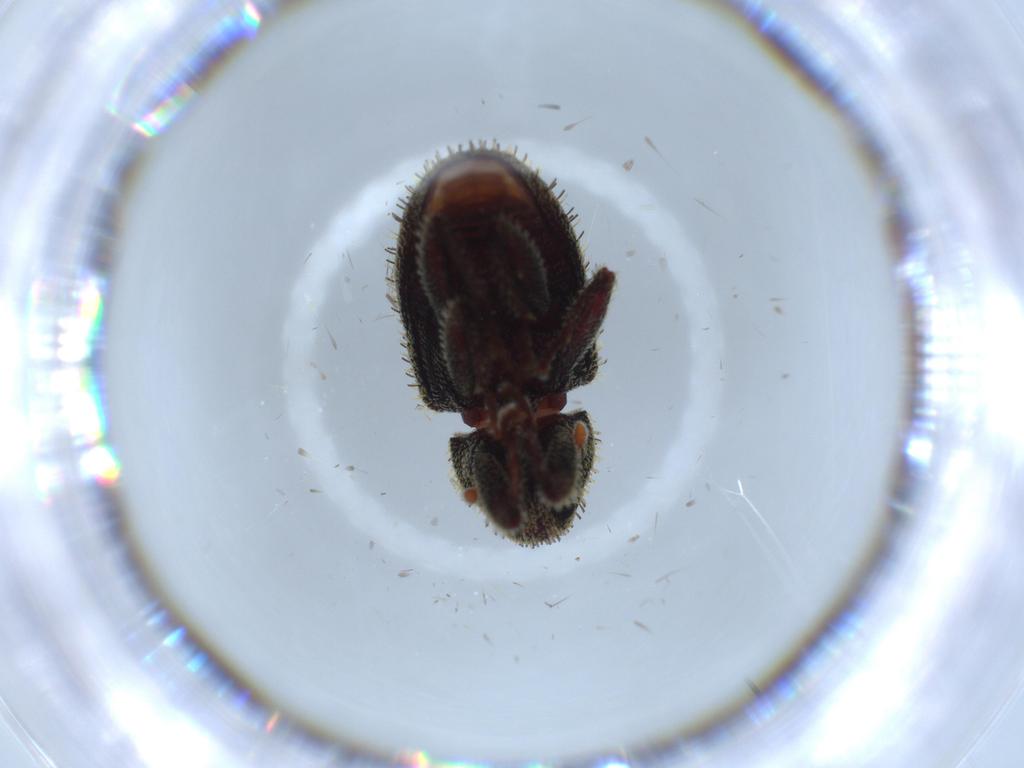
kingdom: Animalia
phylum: Arthropoda
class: Insecta
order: Coleoptera
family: Curculionidae
